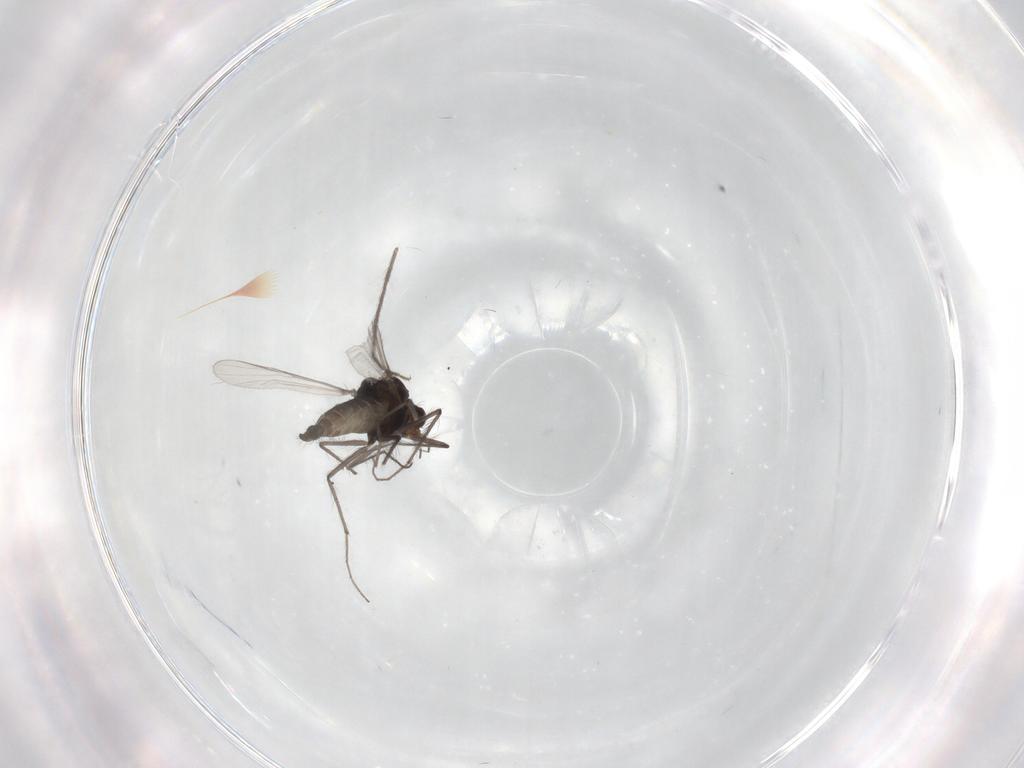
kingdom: Animalia
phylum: Arthropoda
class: Insecta
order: Diptera
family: Chironomidae
